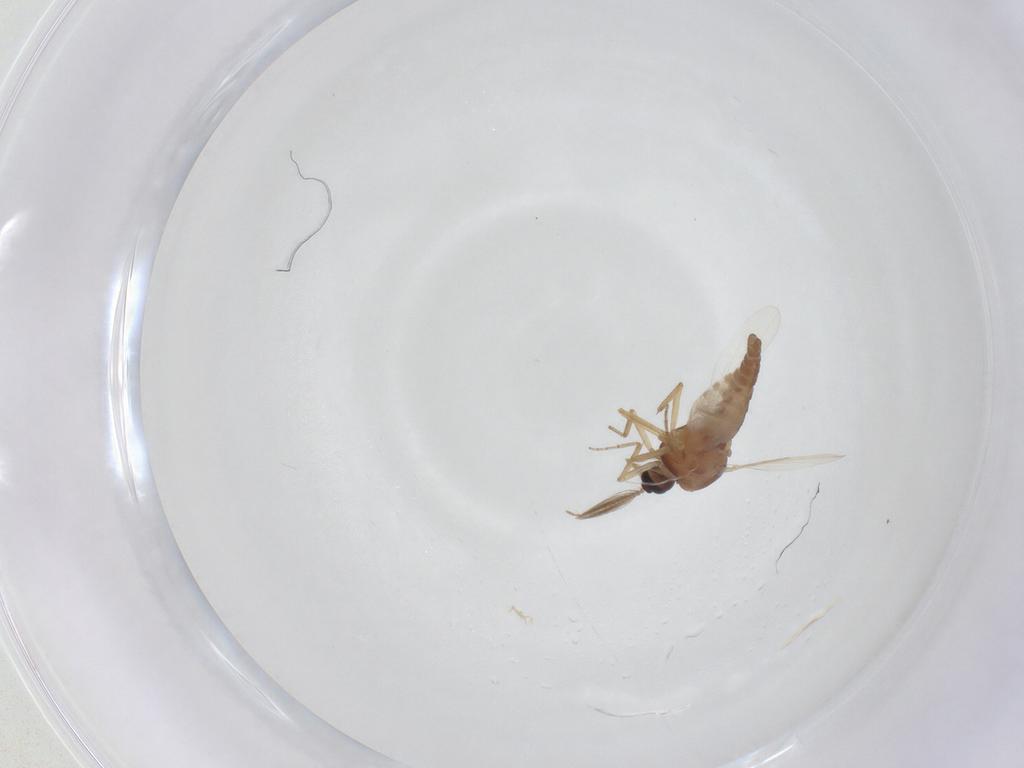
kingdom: Animalia
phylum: Arthropoda
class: Insecta
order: Diptera
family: Ceratopogonidae
